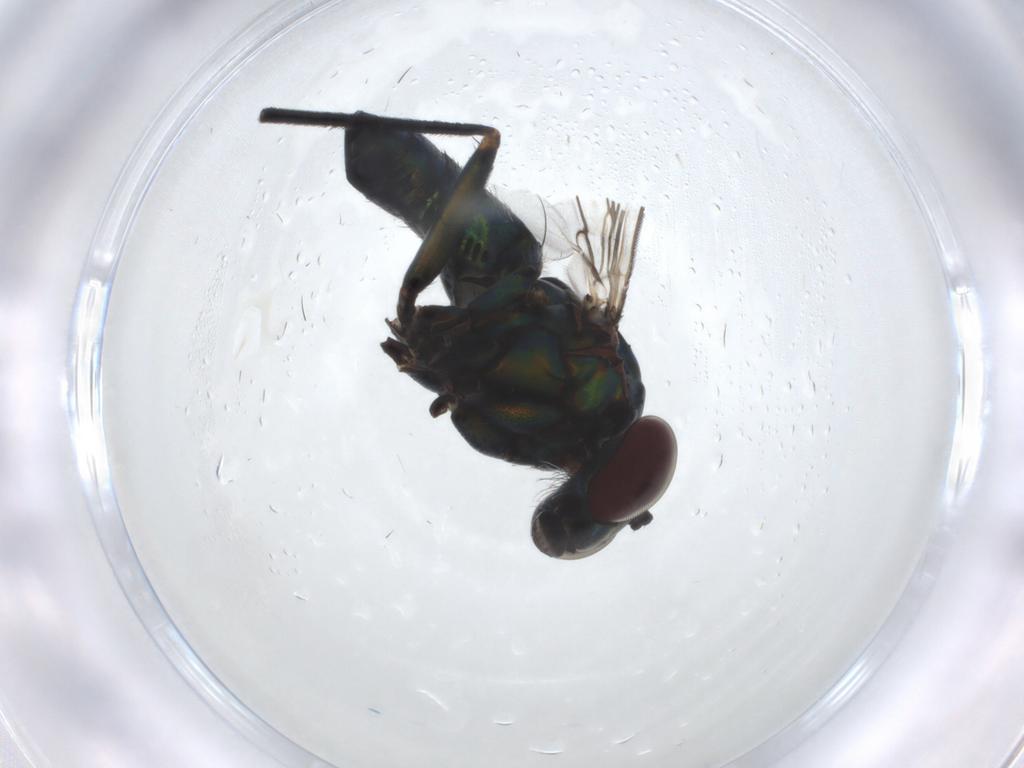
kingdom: Animalia
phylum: Arthropoda
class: Insecta
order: Diptera
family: Dolichopodidae
